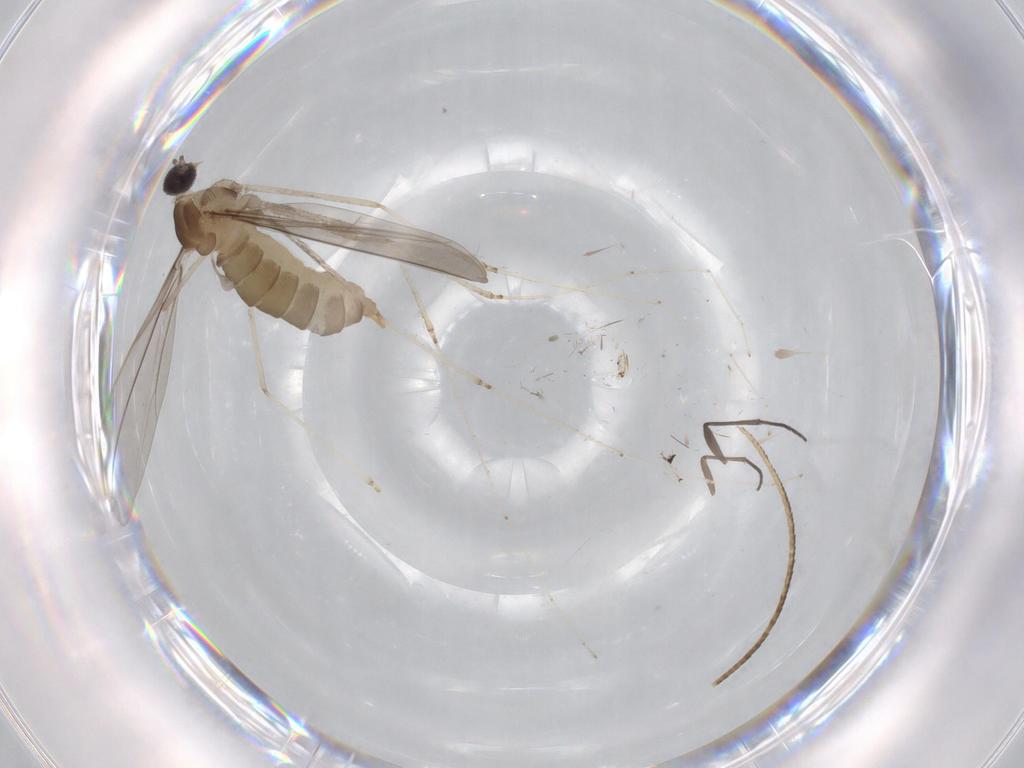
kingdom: Animalia
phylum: Arthropoda
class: Insecta
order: Diptera
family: Cecidomyiidae
